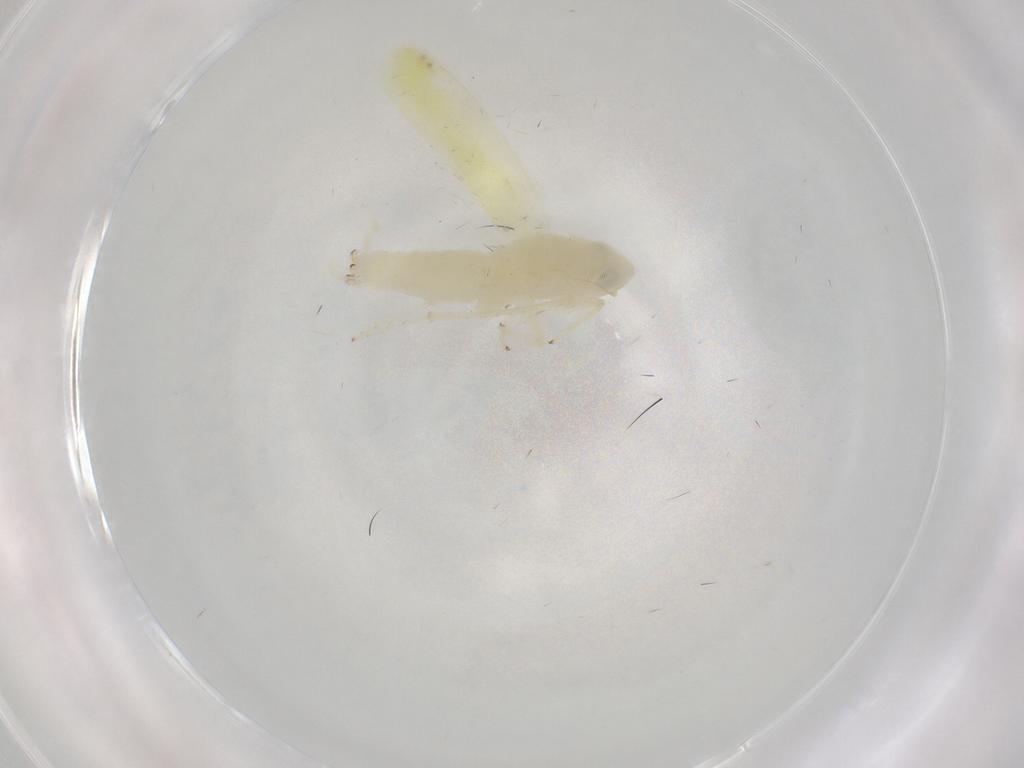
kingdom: Animalia
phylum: Arthropoda
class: Insecta
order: Hemiptera
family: Cicadellidae
